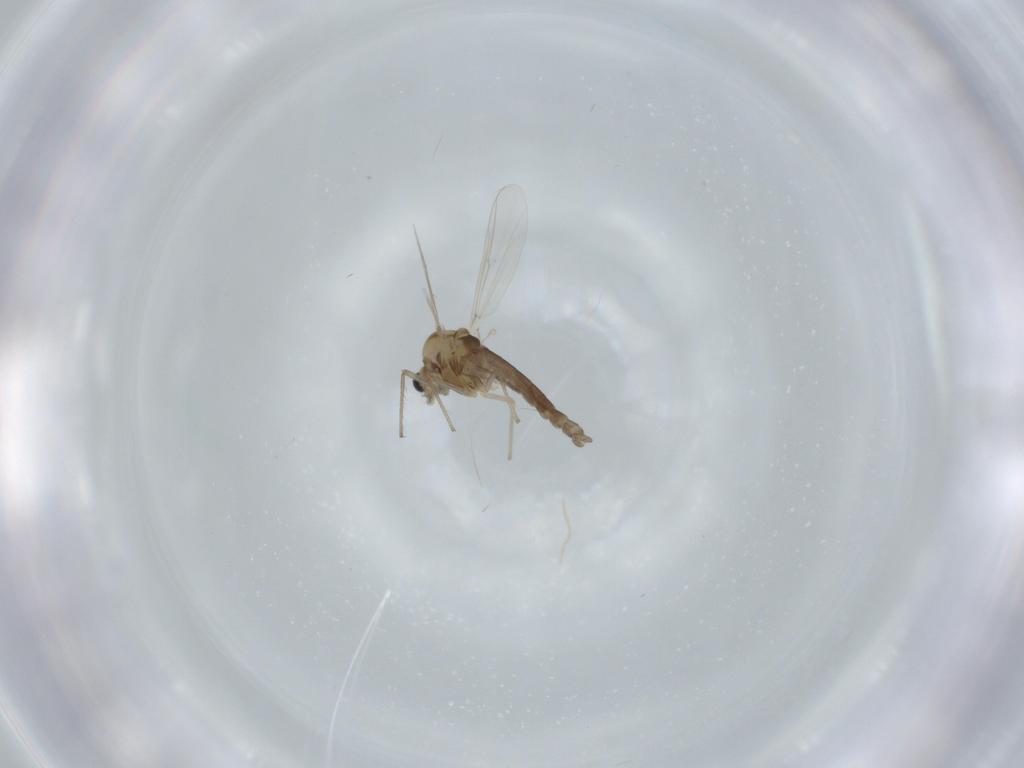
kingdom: Animalia
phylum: Arthropoda
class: Insecta
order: Diptera
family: Chironomidae
